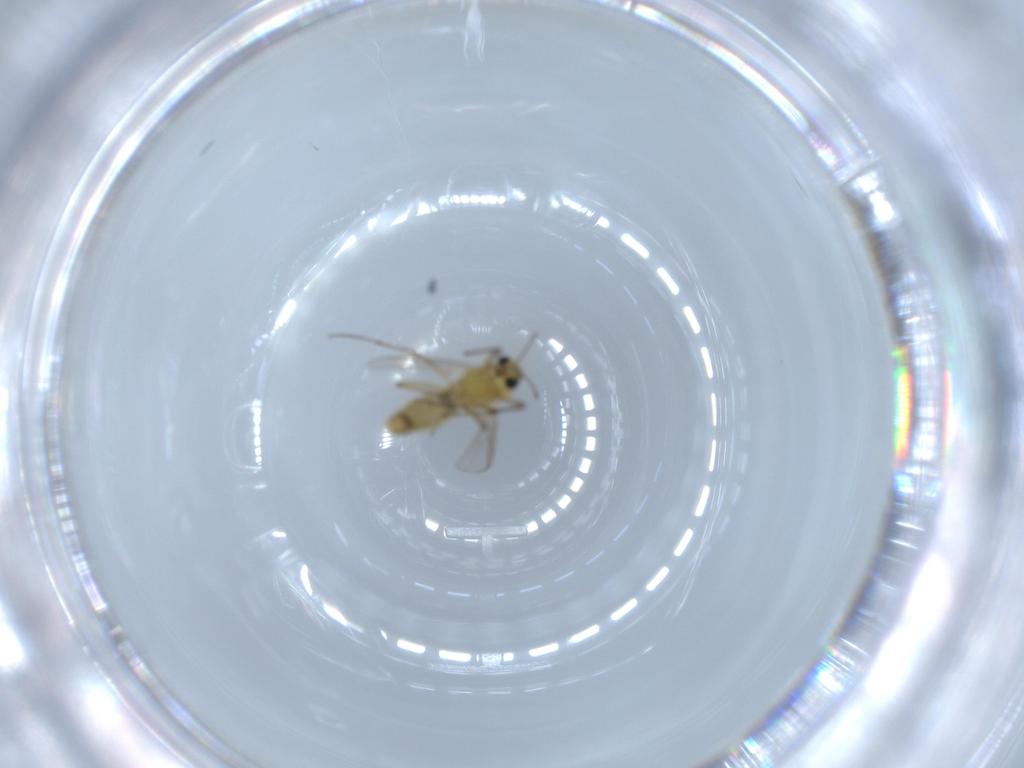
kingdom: Animalia
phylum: Arthropoda
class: Insecta
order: Diptera
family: Chironomidae
